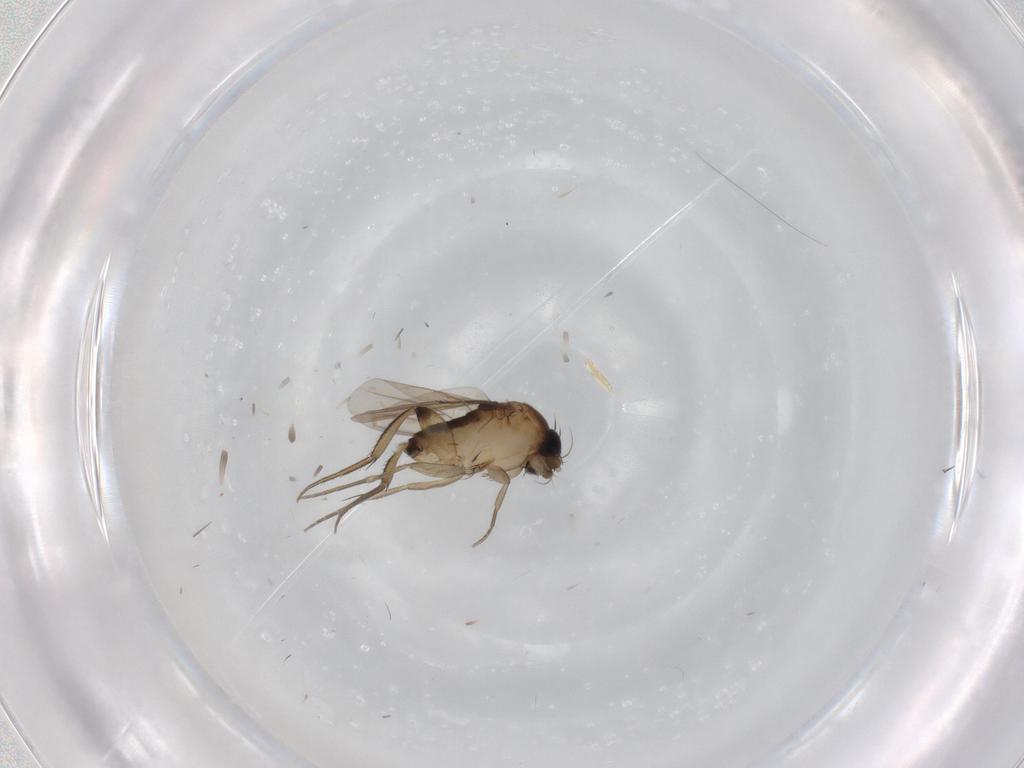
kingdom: Animalia
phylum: Arthropoda
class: Insecta
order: Diptera
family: Phoridae
